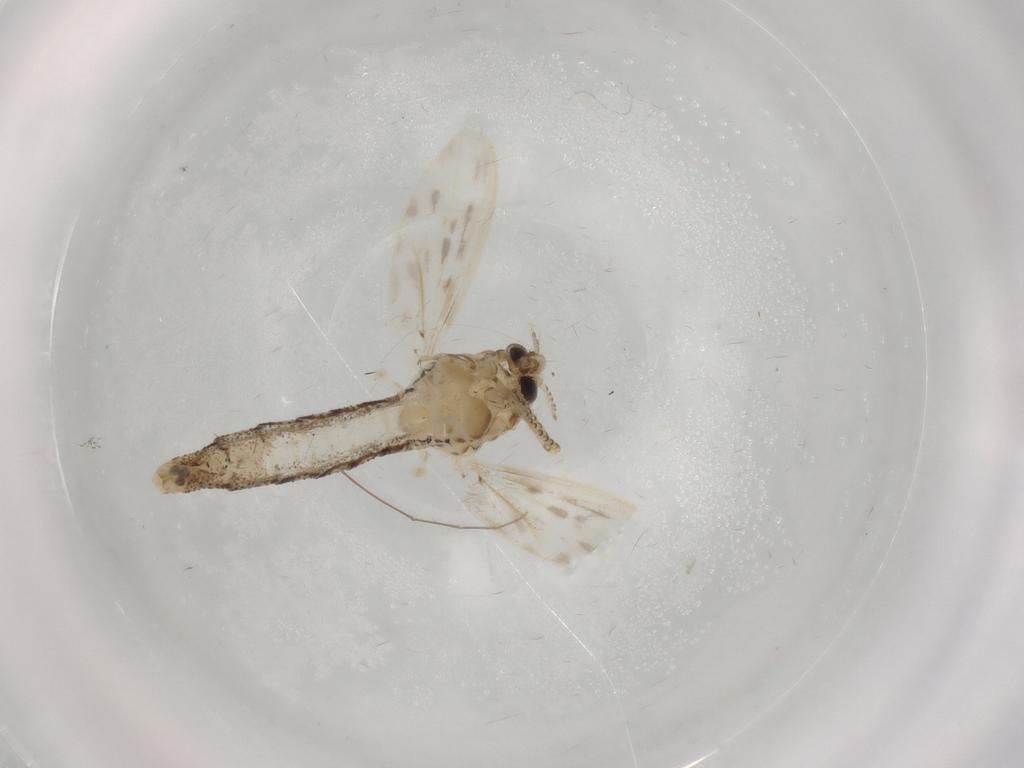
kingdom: Animalia
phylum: Arthropoda
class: Insecta
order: Diptera
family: Chaoboridae
